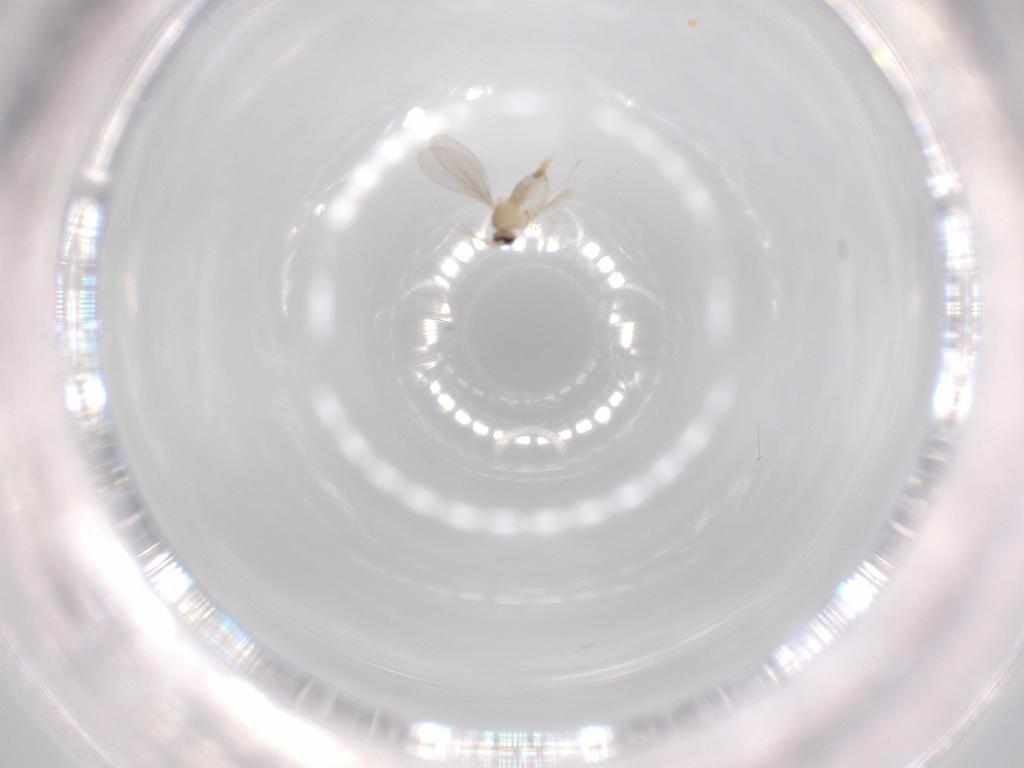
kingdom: Animalia
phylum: Arthropoda
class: Insecta
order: Diptera
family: Cecidomyiidae
